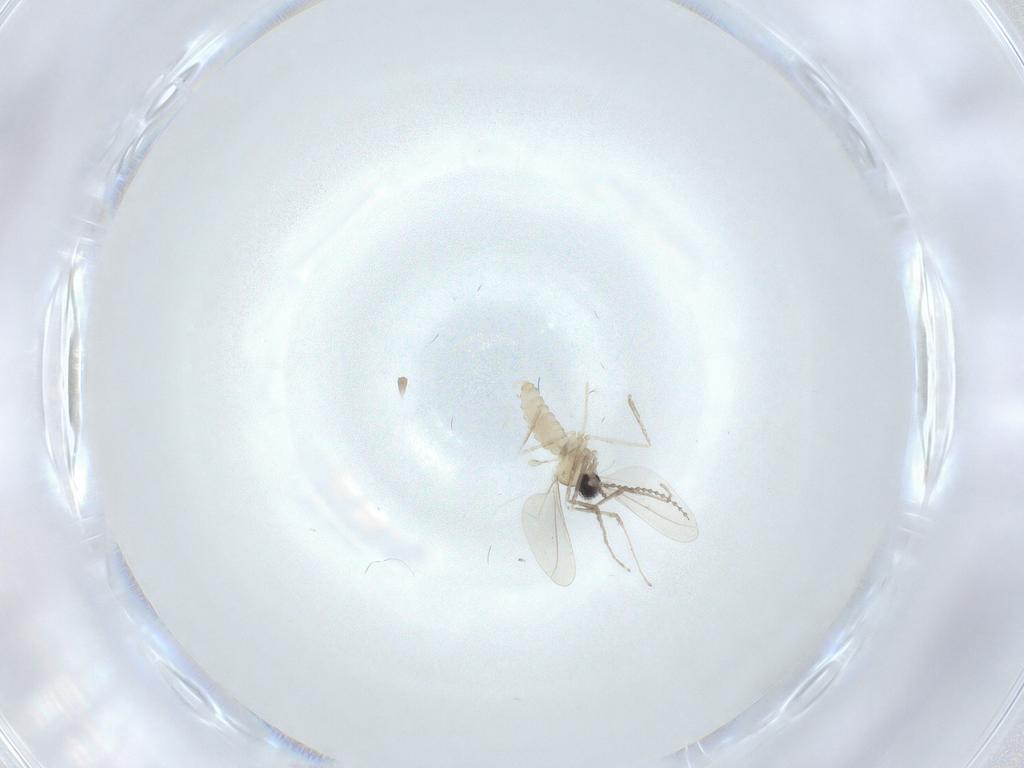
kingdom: Animalia
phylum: Arthropoda
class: Insecta
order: Diptera
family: Cecidomyiidae
